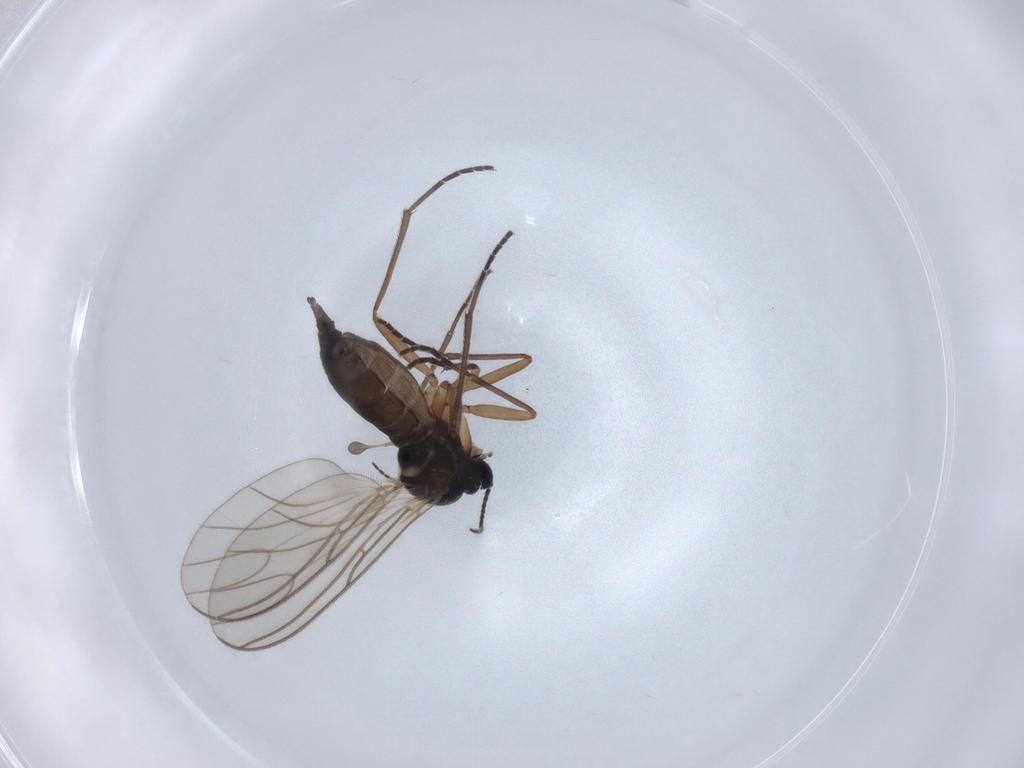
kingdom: Animalia
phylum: Arthropoda
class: Insecta
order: Diptera
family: Sciaridae
